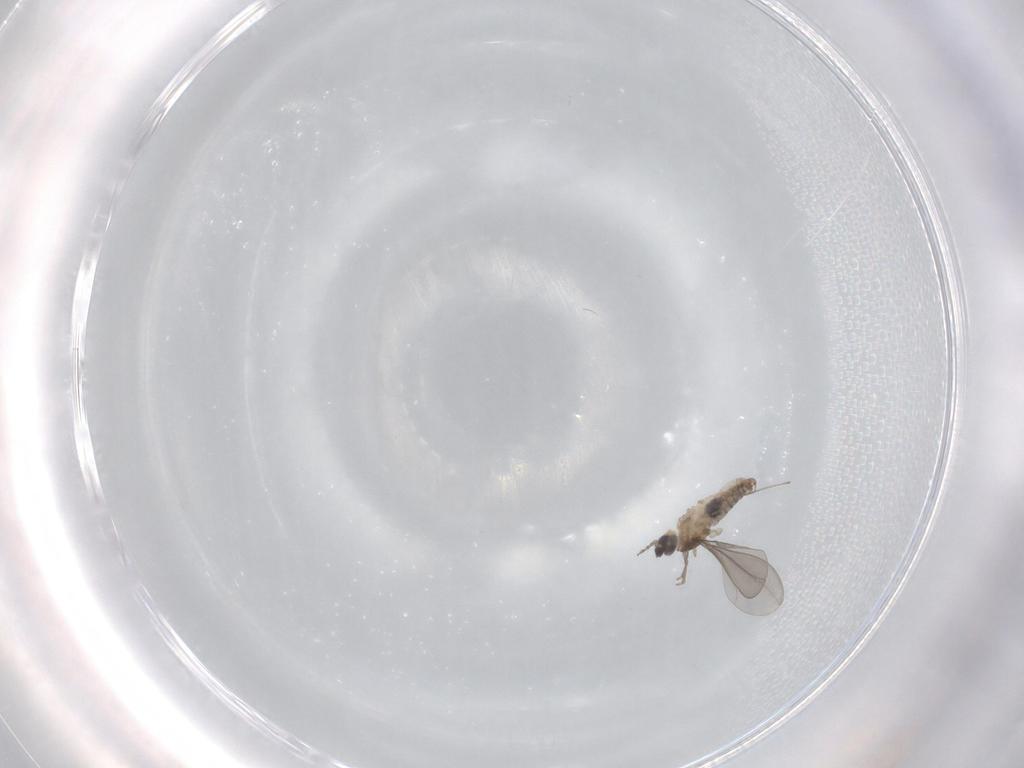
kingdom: Animalia
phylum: Arthropoda
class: Insecta
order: Diptera
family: Cecidomyiidae
